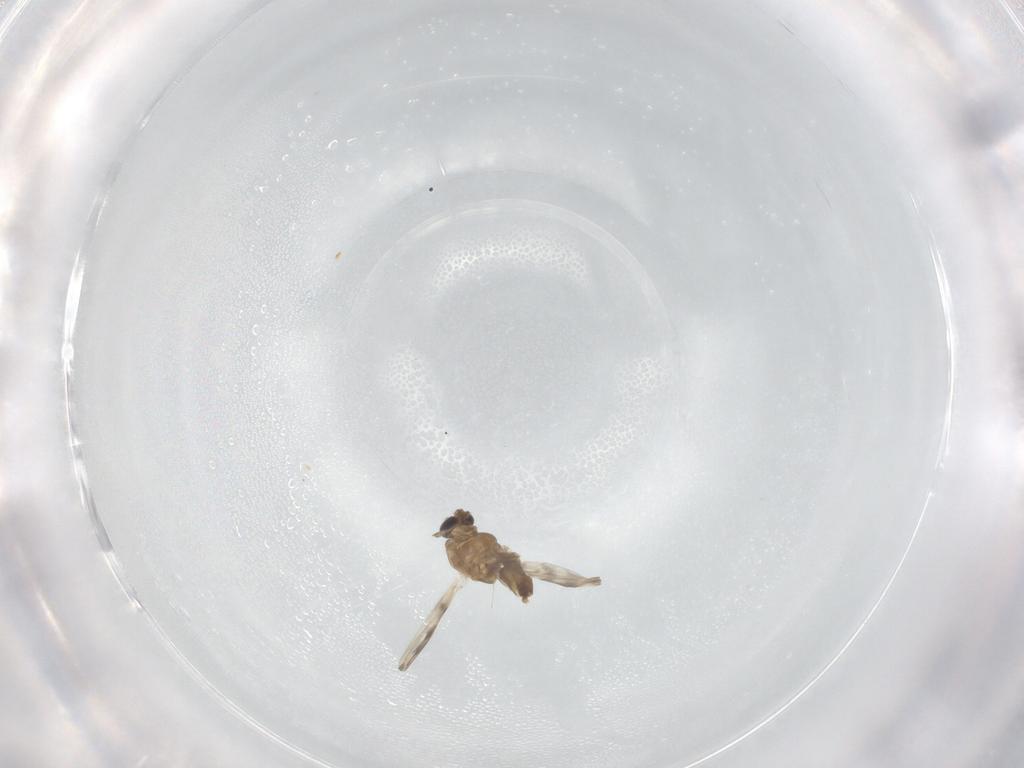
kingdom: Animalia
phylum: Arthropoda
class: Insecta
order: Diptera
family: Chironomidae
